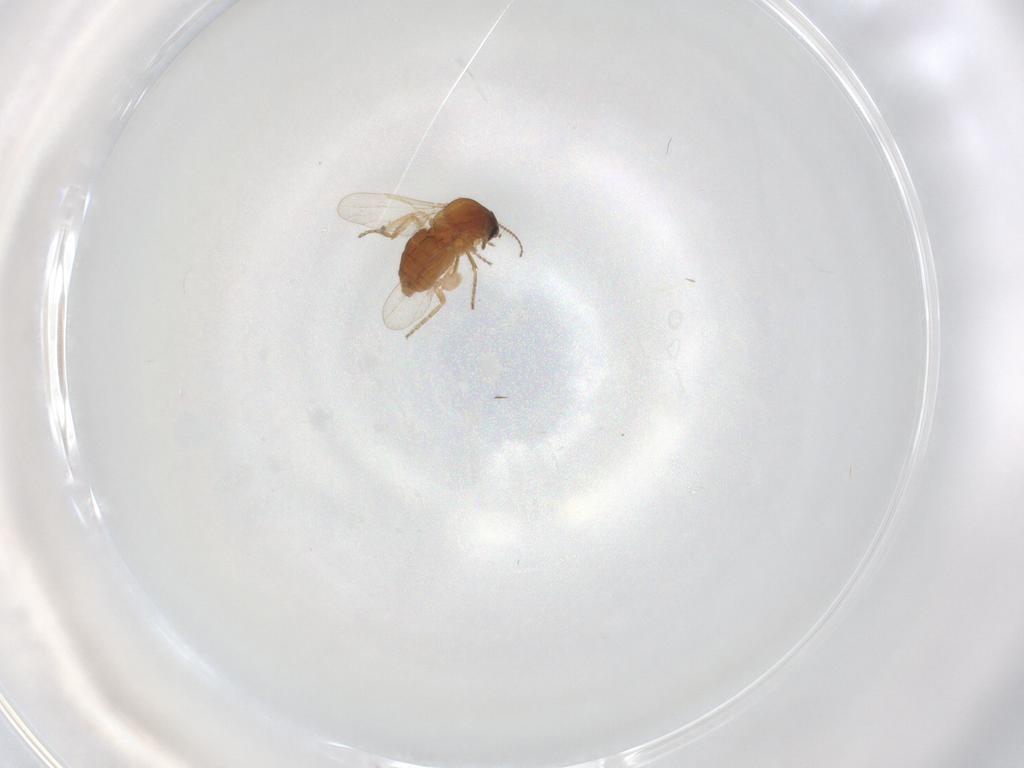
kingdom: Animalia
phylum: Arthropoda
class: Insecta
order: Diptera
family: Ceratopogonidae
